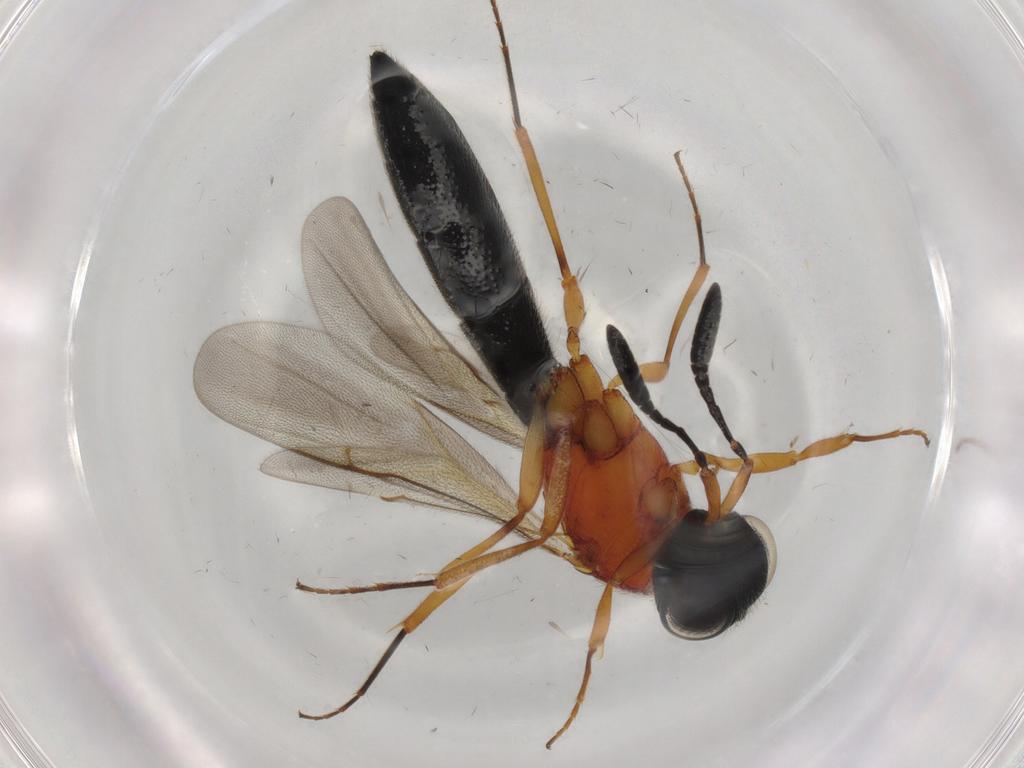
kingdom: Animalia
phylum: Arthropoda
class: Insecta
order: Hymenoptera
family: Scelionidae
